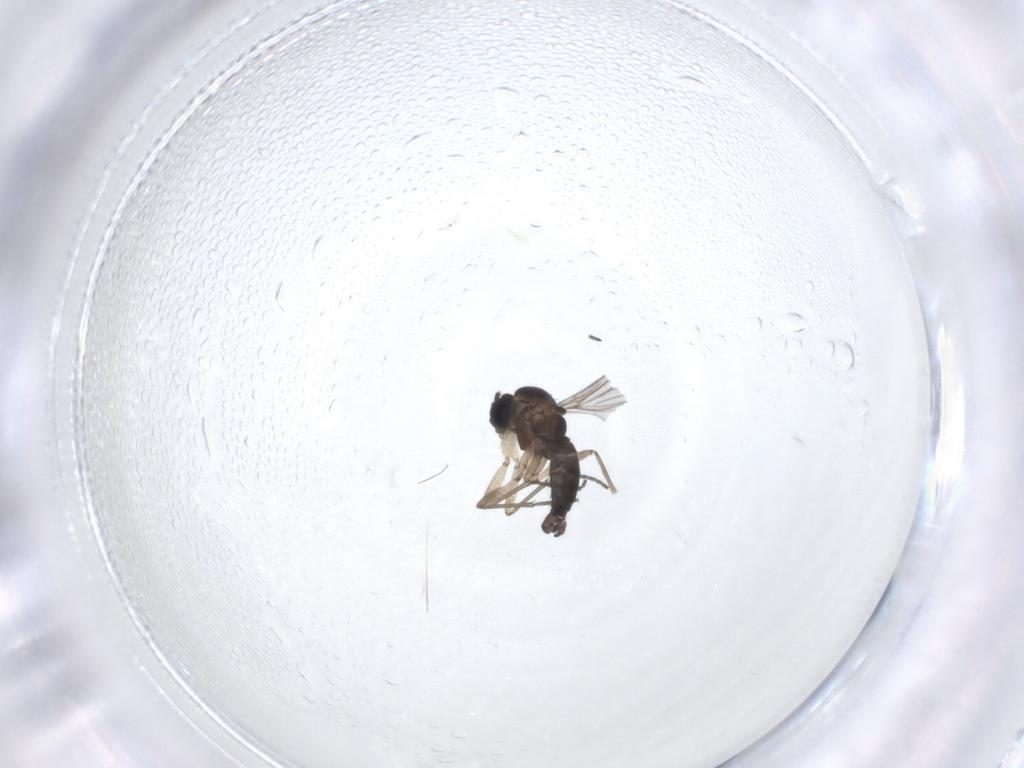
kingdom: Animalia
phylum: Arthropoda
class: Insecta
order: Diptera
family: Sciaridae
